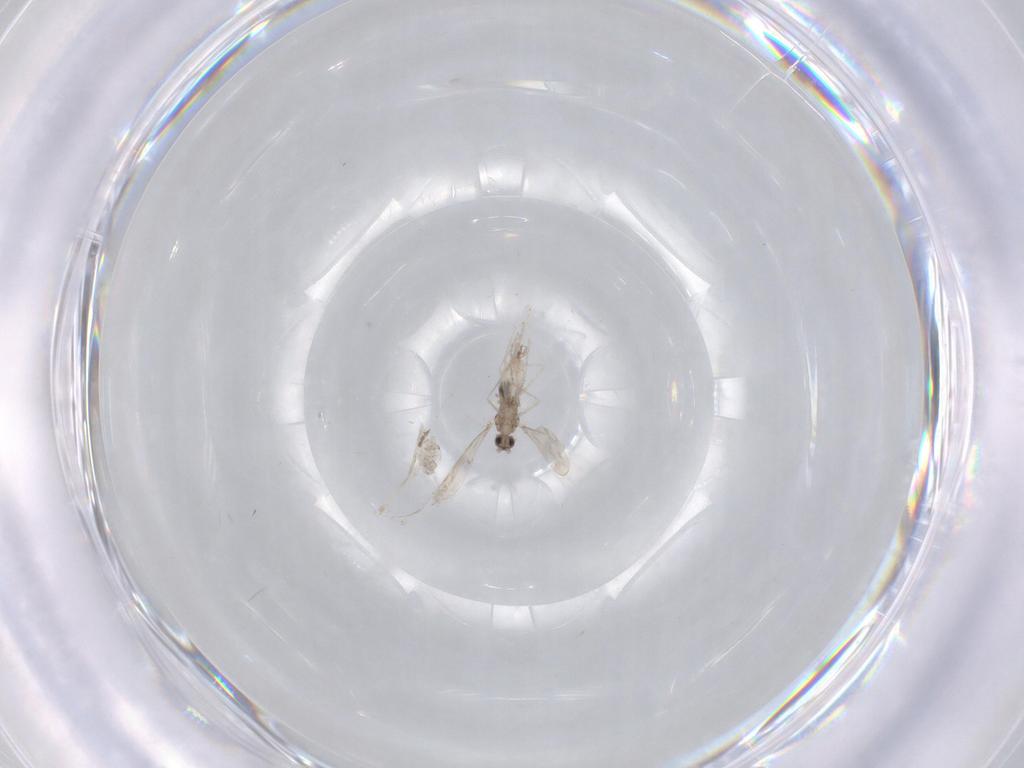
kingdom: Animalia
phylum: Arthropoda
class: Insecta
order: Diptera
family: Cecidomyiidae
